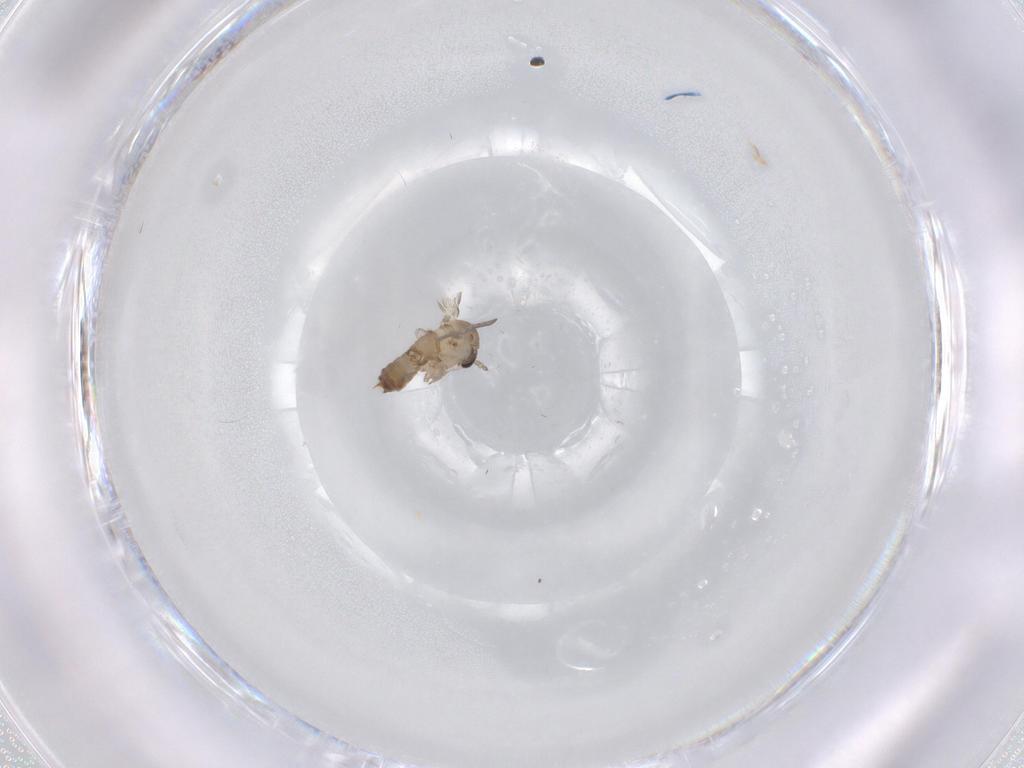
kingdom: Animalia
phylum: Arthropoda
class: Insecta
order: Diptera
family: Psychodidae
